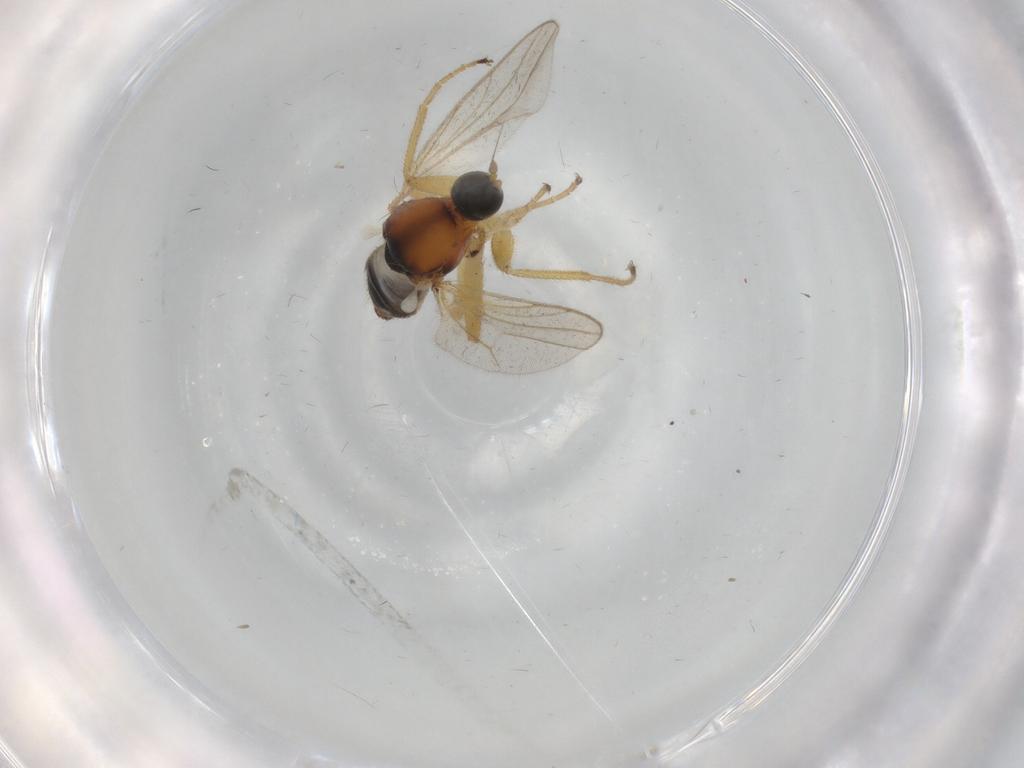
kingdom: Animalia
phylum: Arthropoda
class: Insecta
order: Diptera
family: Hybotidae
